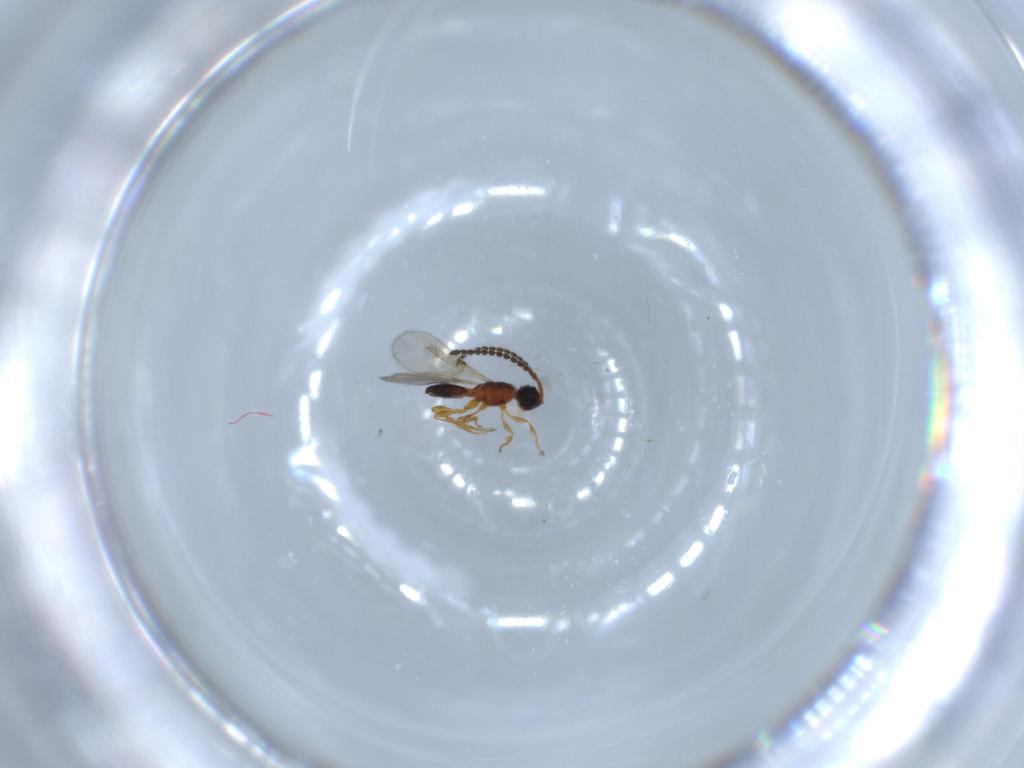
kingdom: Animalia
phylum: Arthropoda
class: Insecta
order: Hymenoptera
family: Diapriidae
